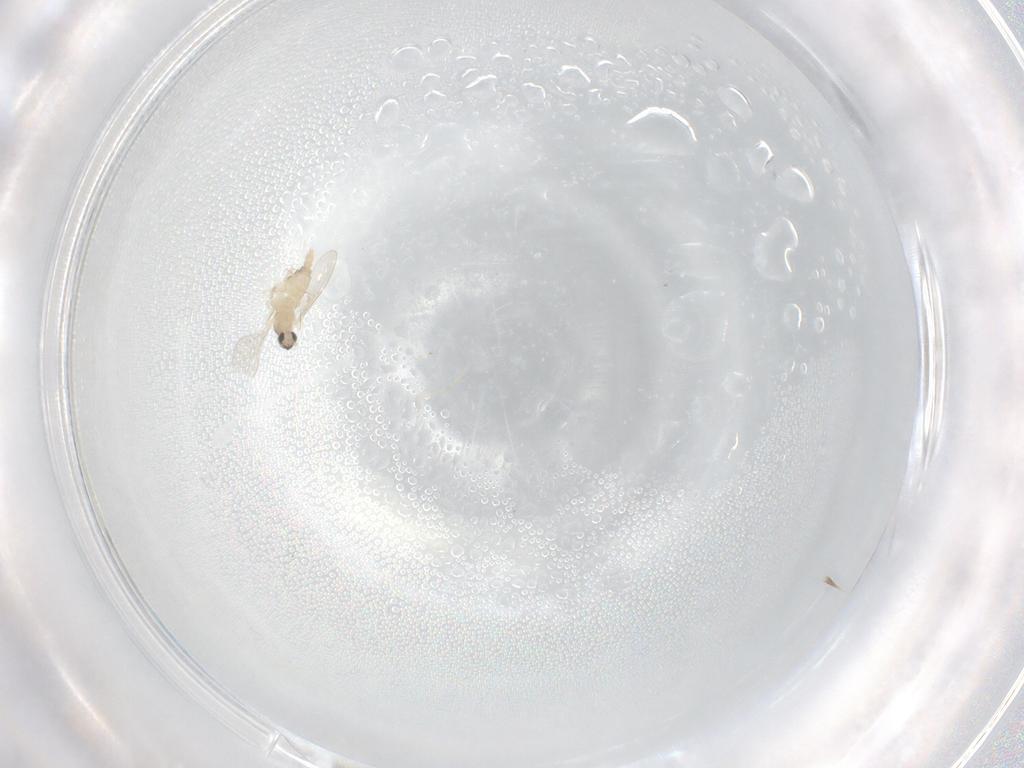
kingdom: Animalia
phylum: Arthropoda
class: Insecta
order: Diptera
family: Cecidomyiidae
